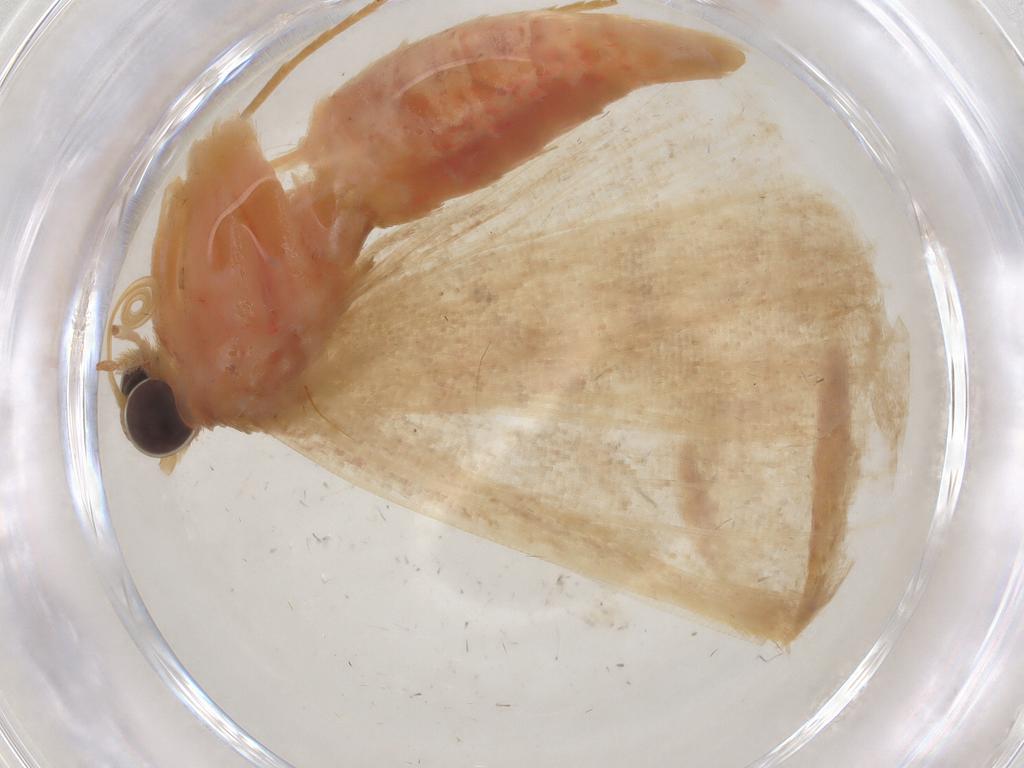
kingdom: Animalia
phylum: Arthropoda
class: Insecta
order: Lepidoptera
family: Geometridae
